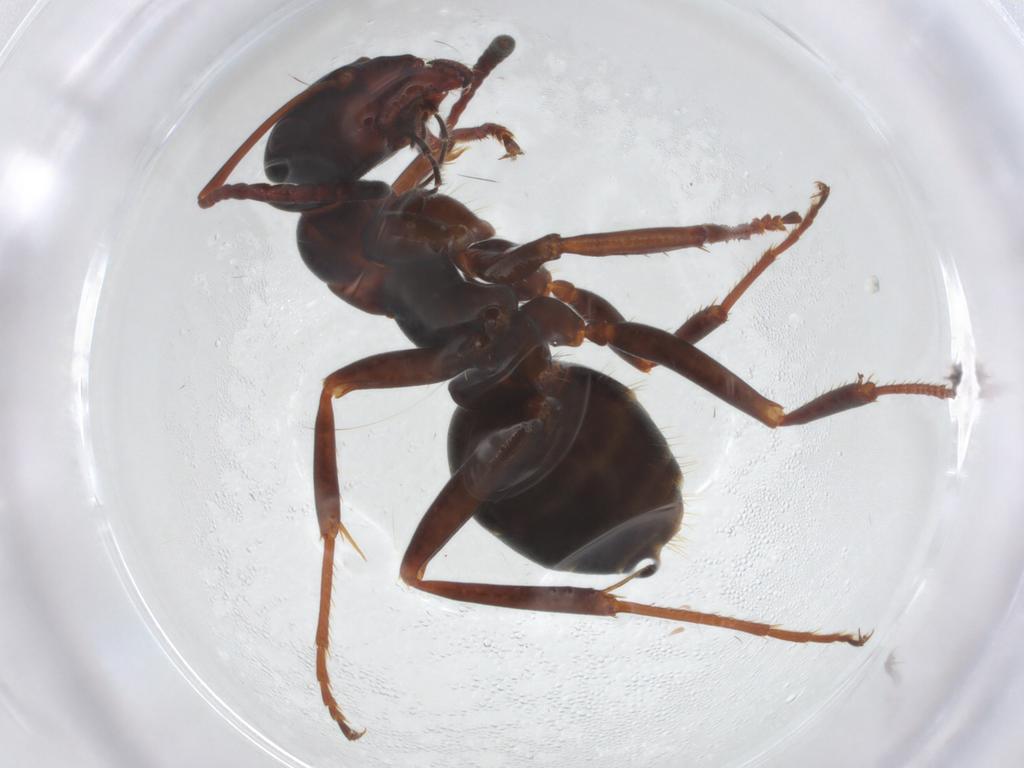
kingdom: Animalia
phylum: Arthropoda
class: Insecta
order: Hymenoptera
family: Formicidae
